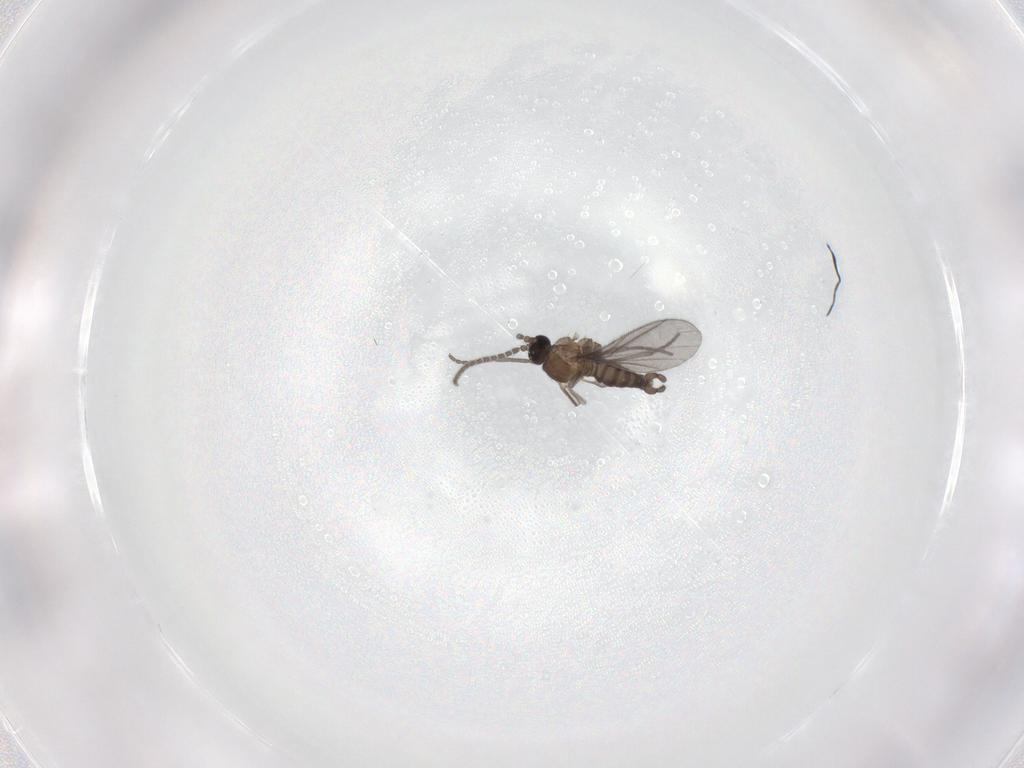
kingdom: Animalia
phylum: Arthropoda
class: Insecta
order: Diptera
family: Sciaridae
